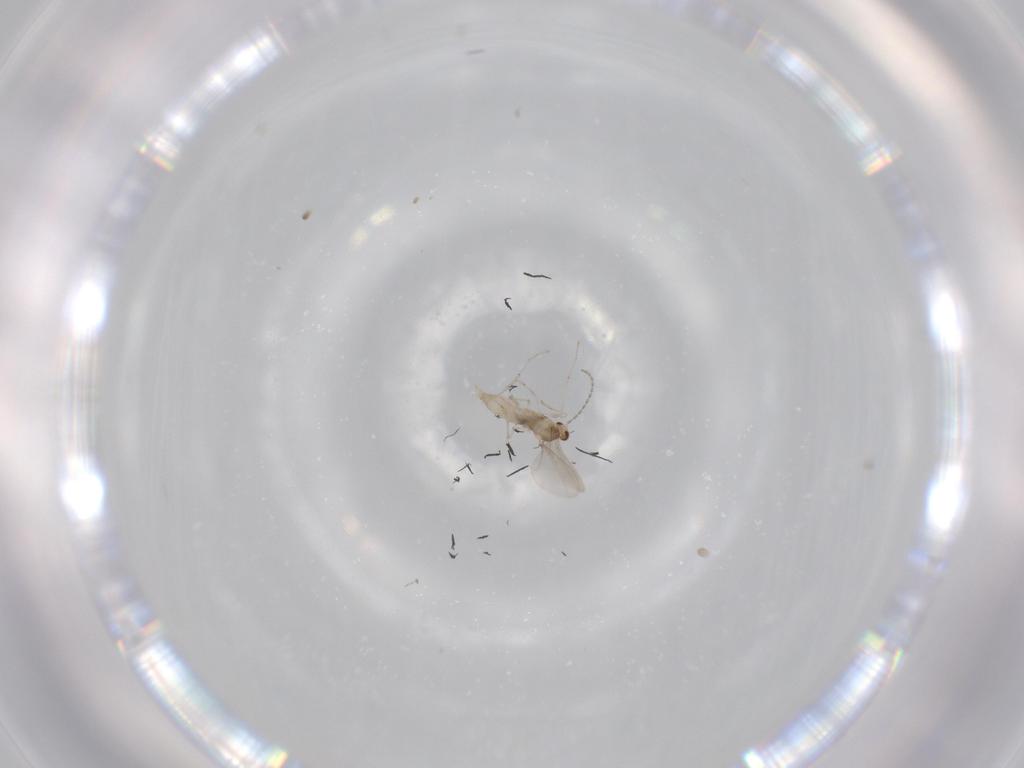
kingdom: Animalia
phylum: Arthropoda
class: Insecta
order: Diptera
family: Cecidomyiidae
